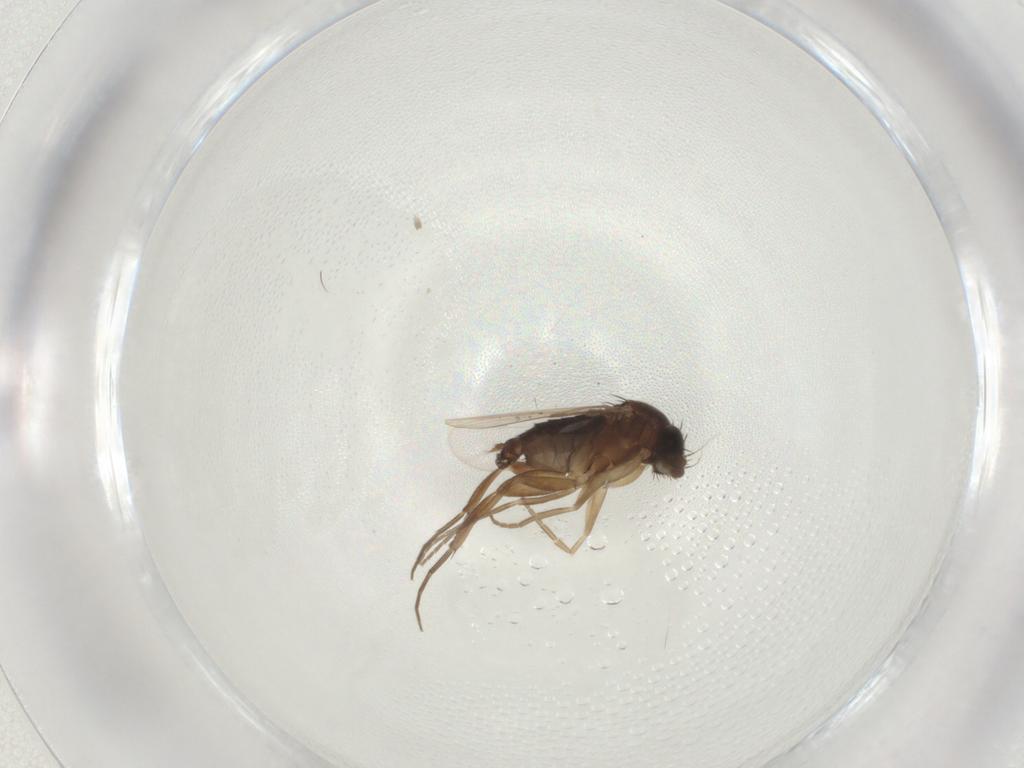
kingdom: Animalia
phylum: Arthropoda
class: Insecta
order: Diptera
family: Phoridae
